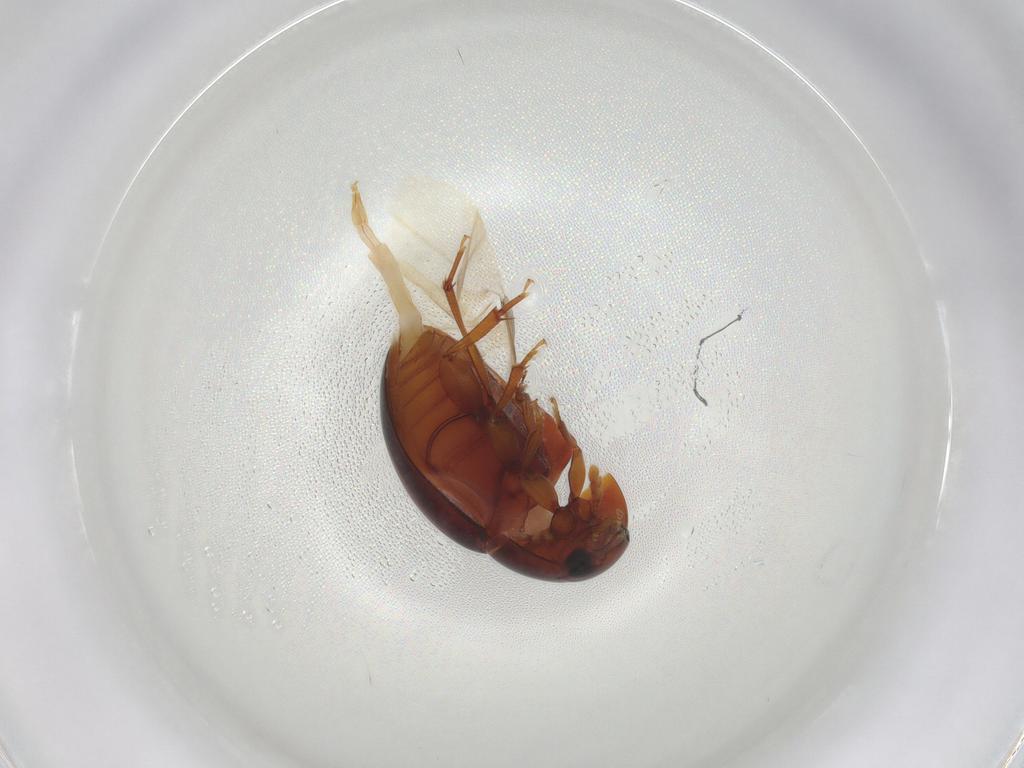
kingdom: Animalia
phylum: Arthropoda
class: Insecta
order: Coleoptera
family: Phalacridae
